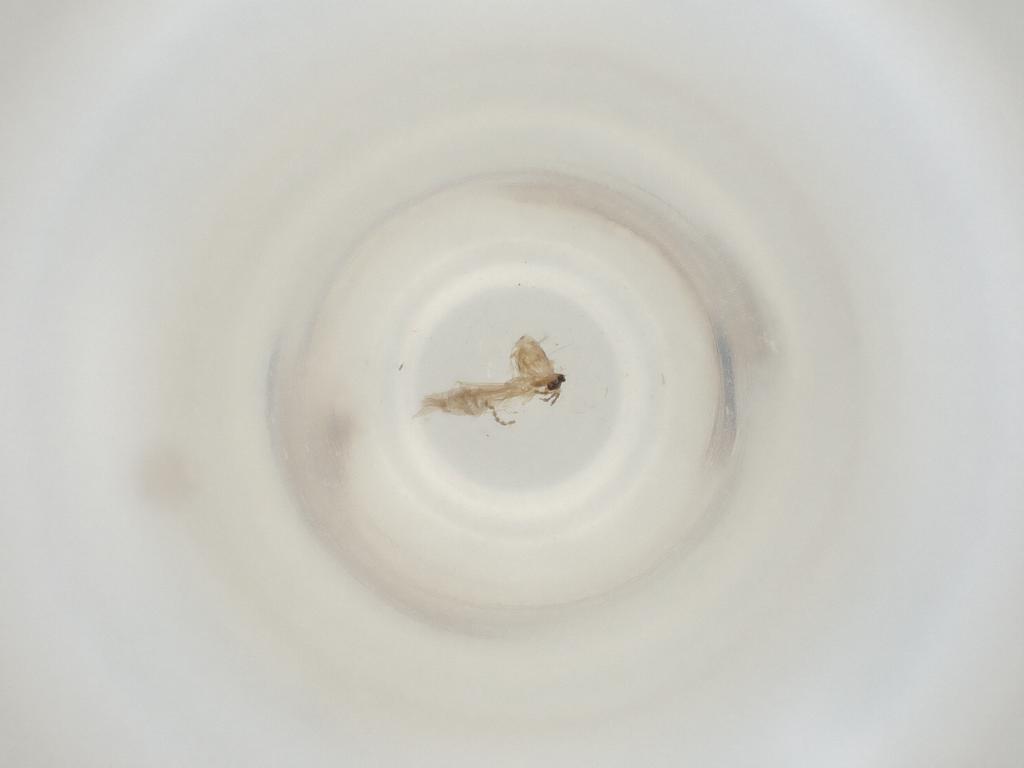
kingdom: Animalia
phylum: Arthropoda
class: Insecta
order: Diptera
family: Cecidomyiidae
